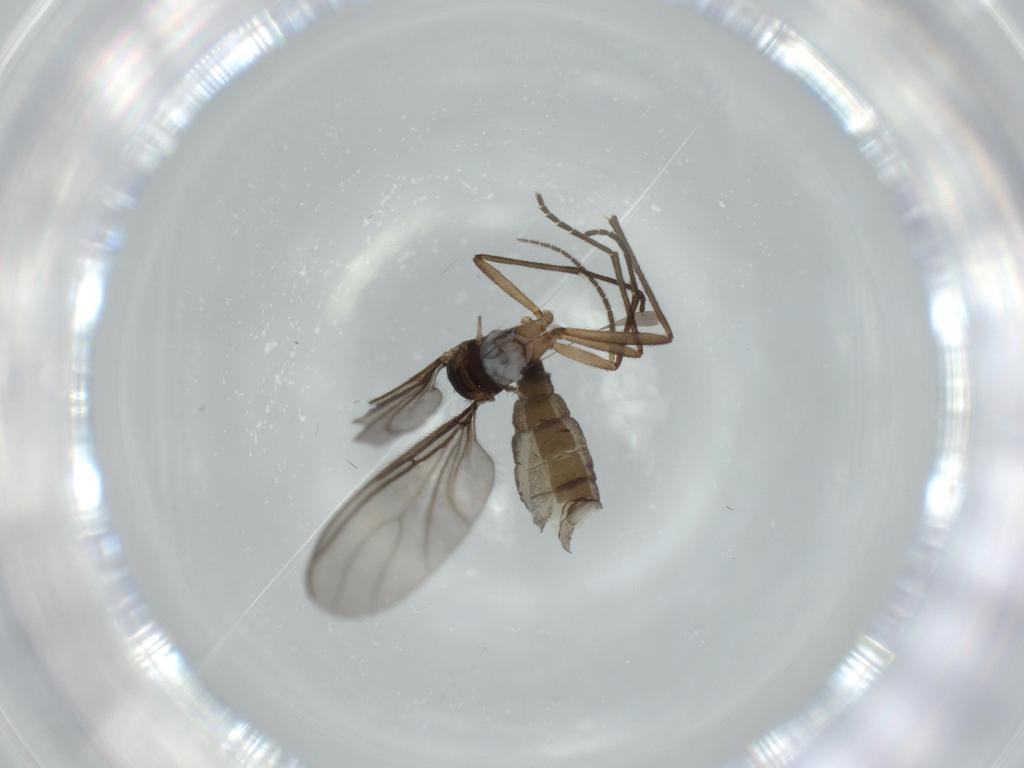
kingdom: Animalia
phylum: Arthropoda
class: Insecta
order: Diptera
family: Sciaridae
